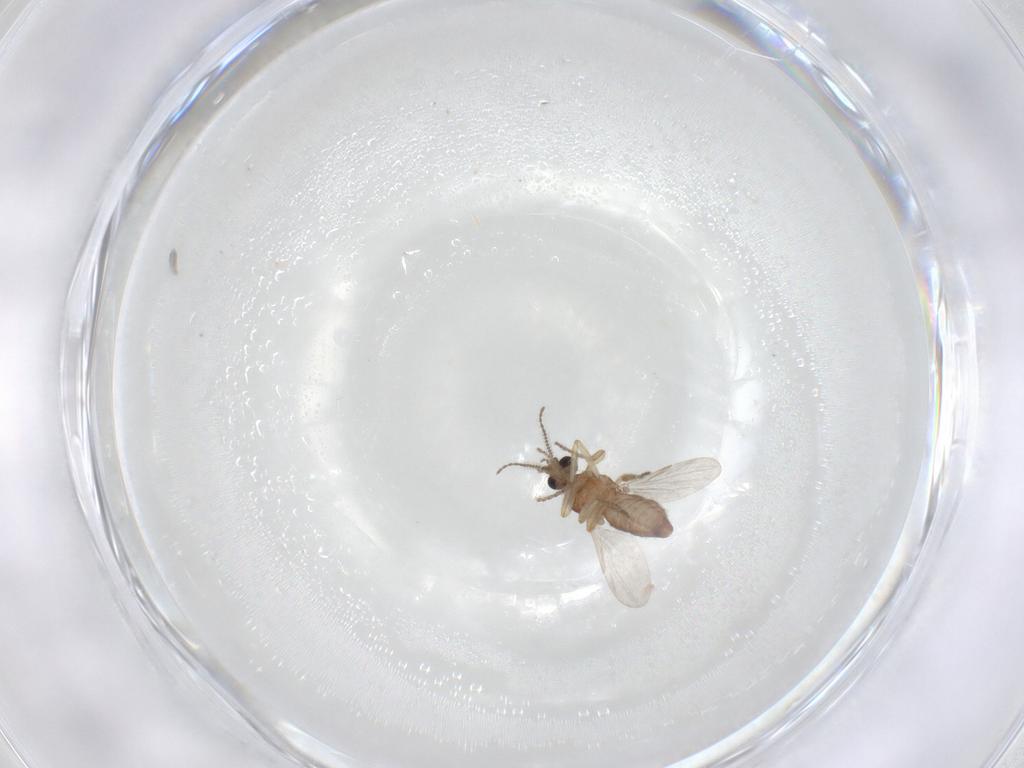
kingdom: Animalia
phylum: Arthropoda
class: Insecta
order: Diptera
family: Ceratopogonidae
